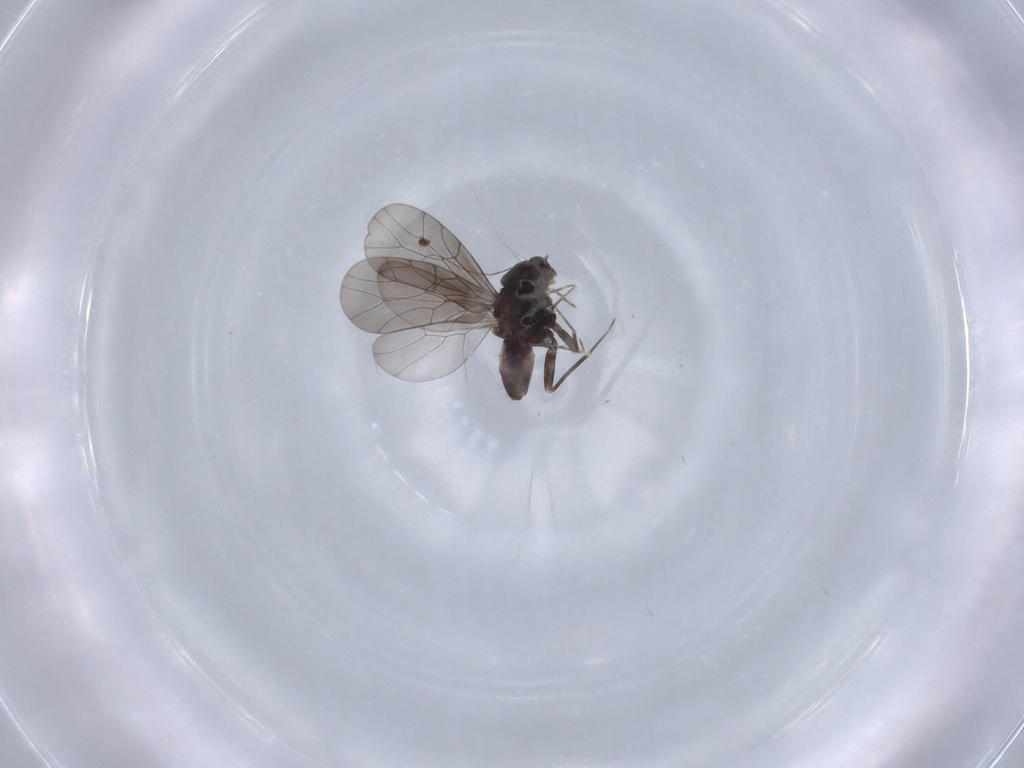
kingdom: Animalia
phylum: Arthropoda
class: Insecta
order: Psocodea
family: Lepidopsocidae
